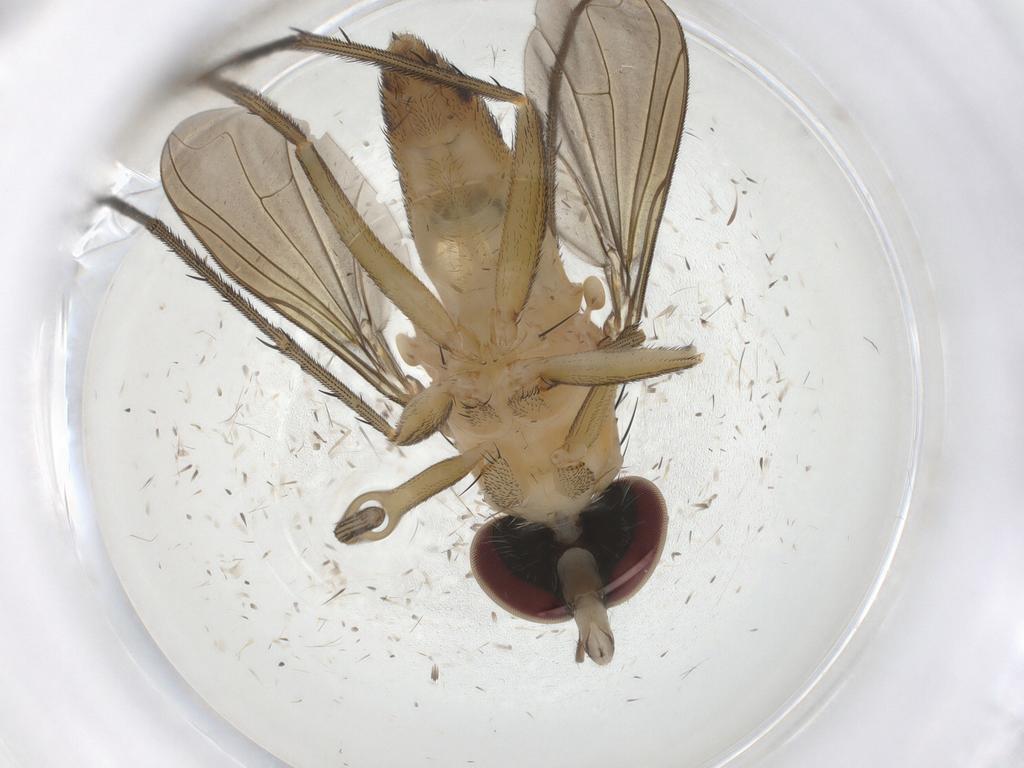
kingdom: Animalia
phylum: Arthropoda
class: Insecta
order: Diptera
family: Dolichopodidae
